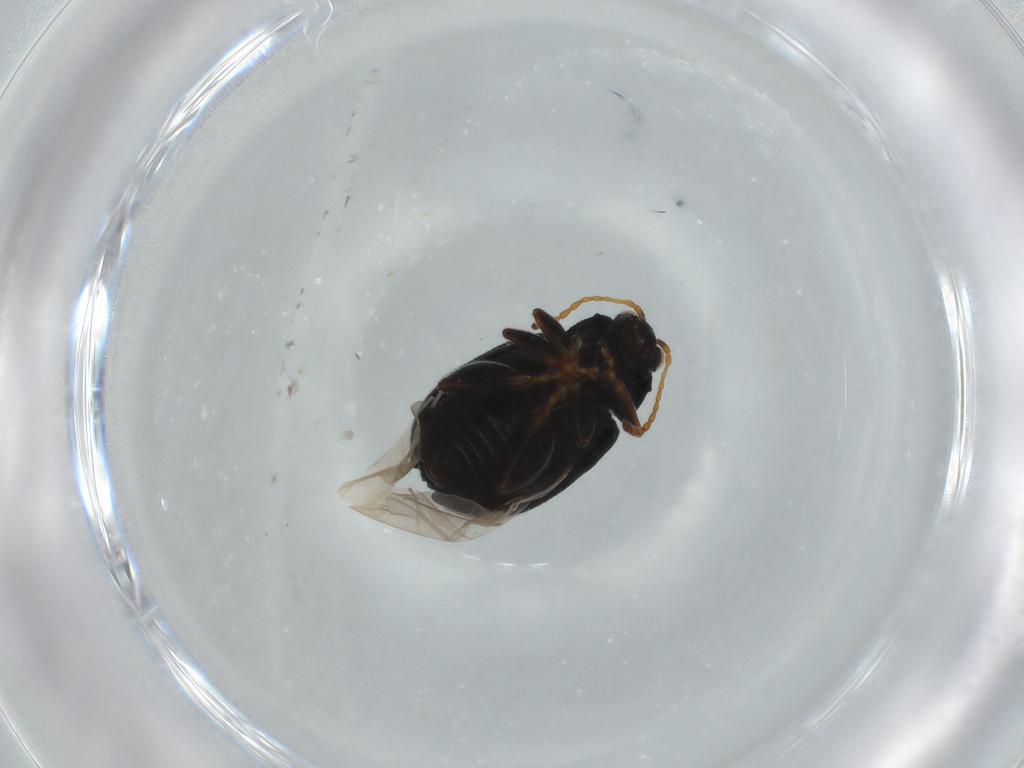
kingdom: Animalia
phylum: Arthropoda
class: Insecta
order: Coleoptera
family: Chrysomelidae
